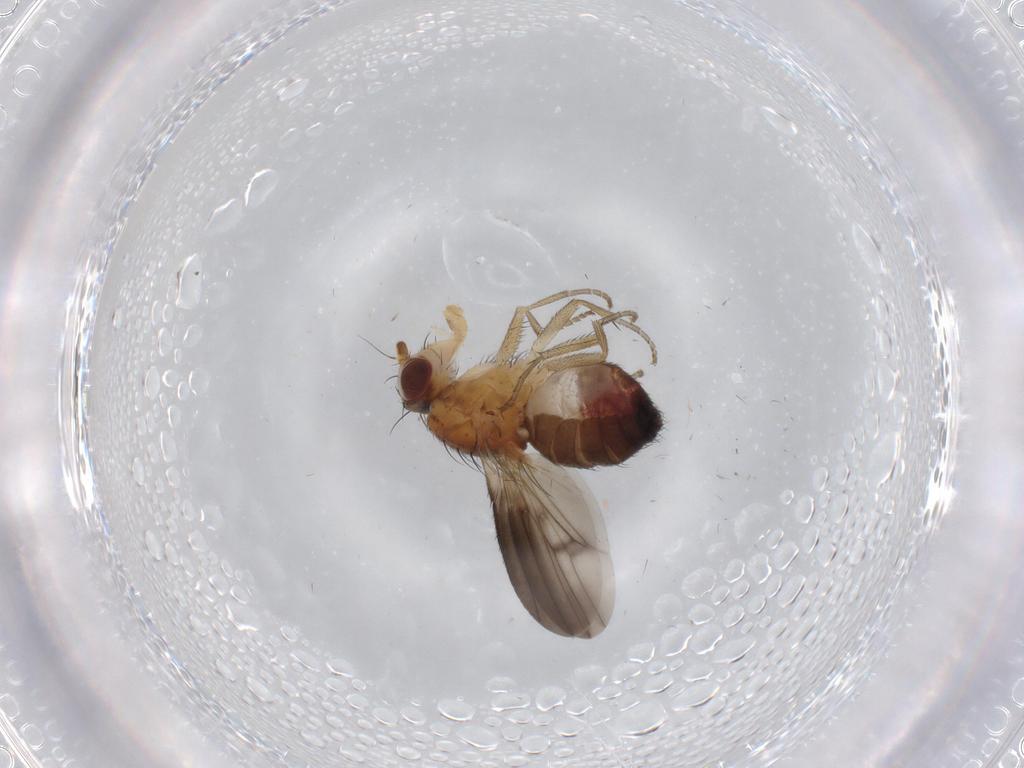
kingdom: Animalia
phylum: Arthropoda
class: Insecta
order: Diptera
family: Heleomyzidae
